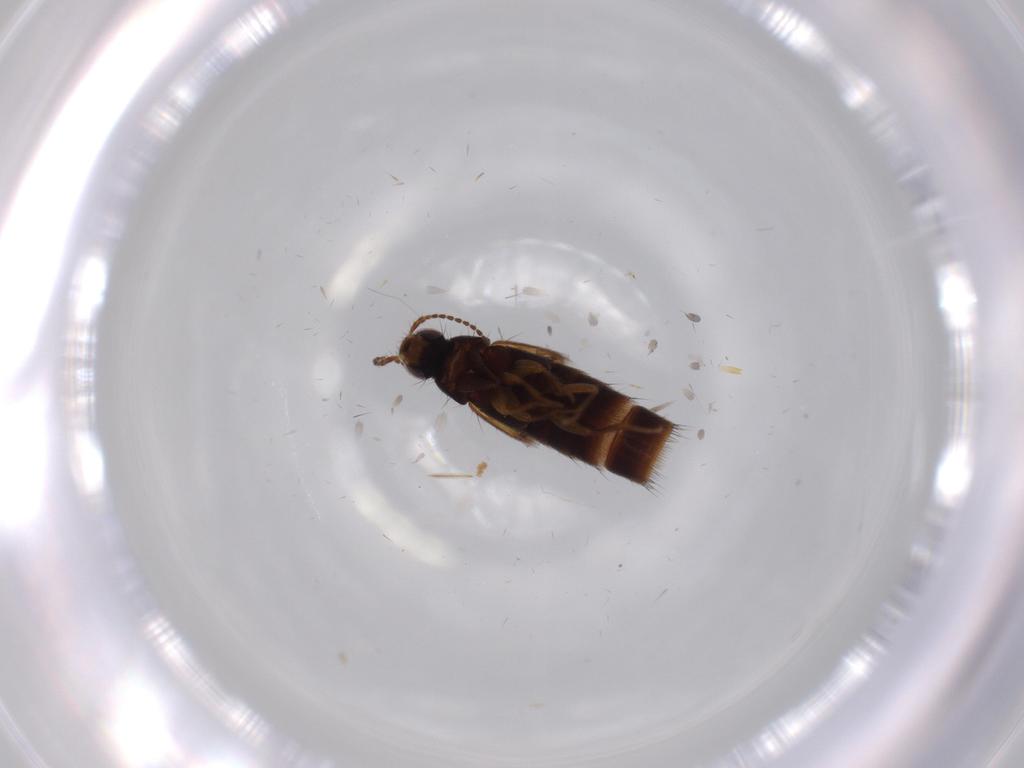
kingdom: Animalia
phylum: Arthropoda
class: Insecta
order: Coleoptera
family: Staphylinidae
